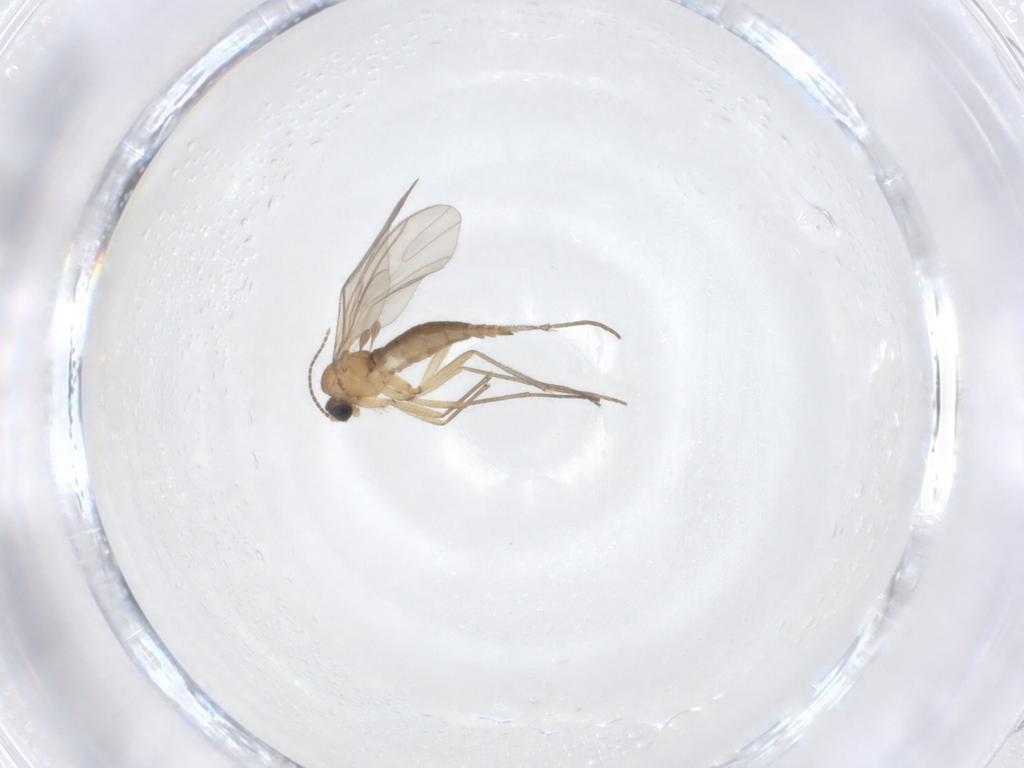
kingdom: Animalia
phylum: Arthropoda
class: Insecta
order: Diptera
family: Sciaridae
